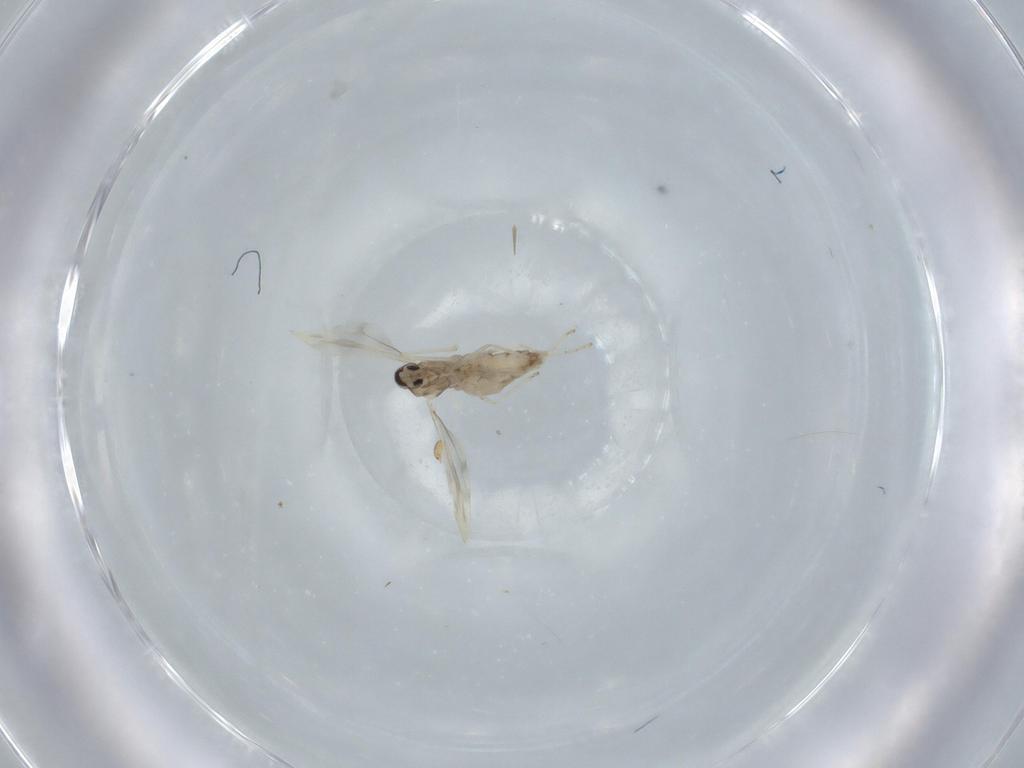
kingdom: Animalia
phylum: Arthropoda
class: Insecta
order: Diptera
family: Cecidomyiidae
